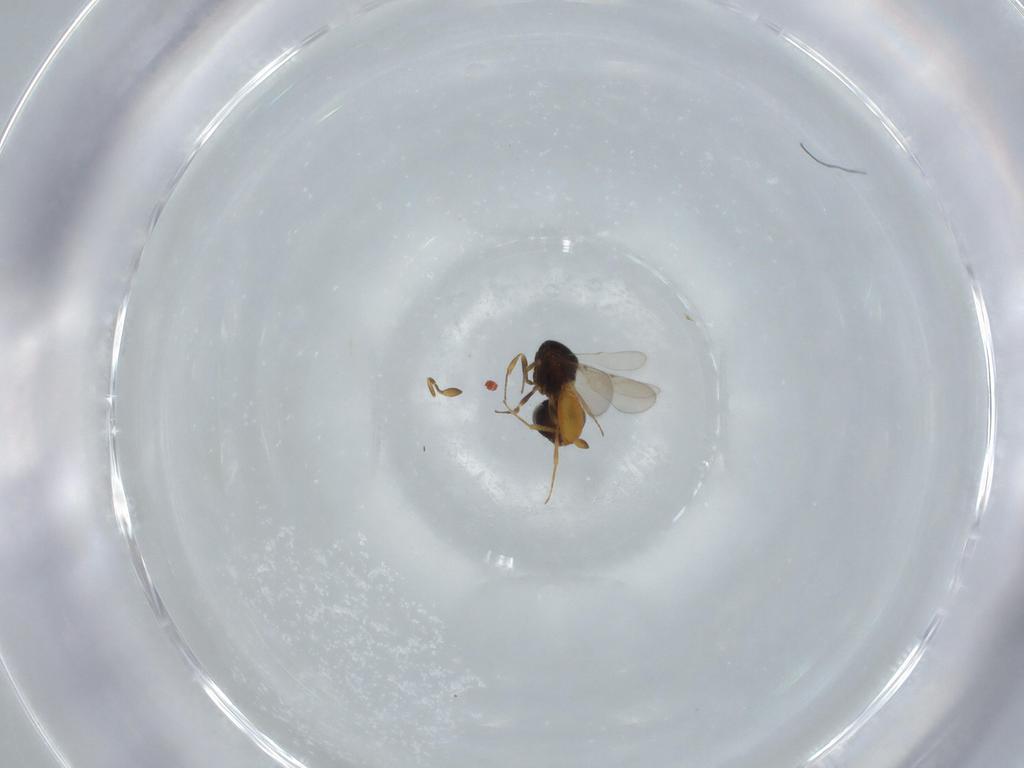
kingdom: Animalia
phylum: Arthropoda
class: Insecta
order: Hymenoptera
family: Scelionidae
